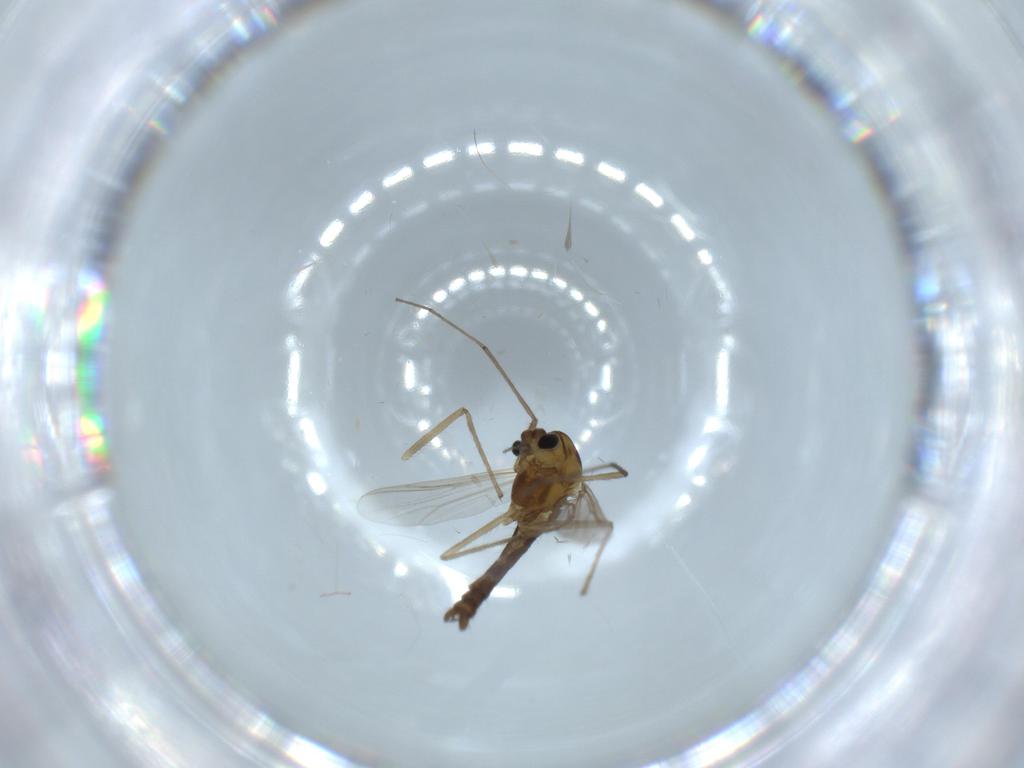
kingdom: Animalia
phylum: Arthropoda
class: Insecta
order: Diptera
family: Chironomidae
